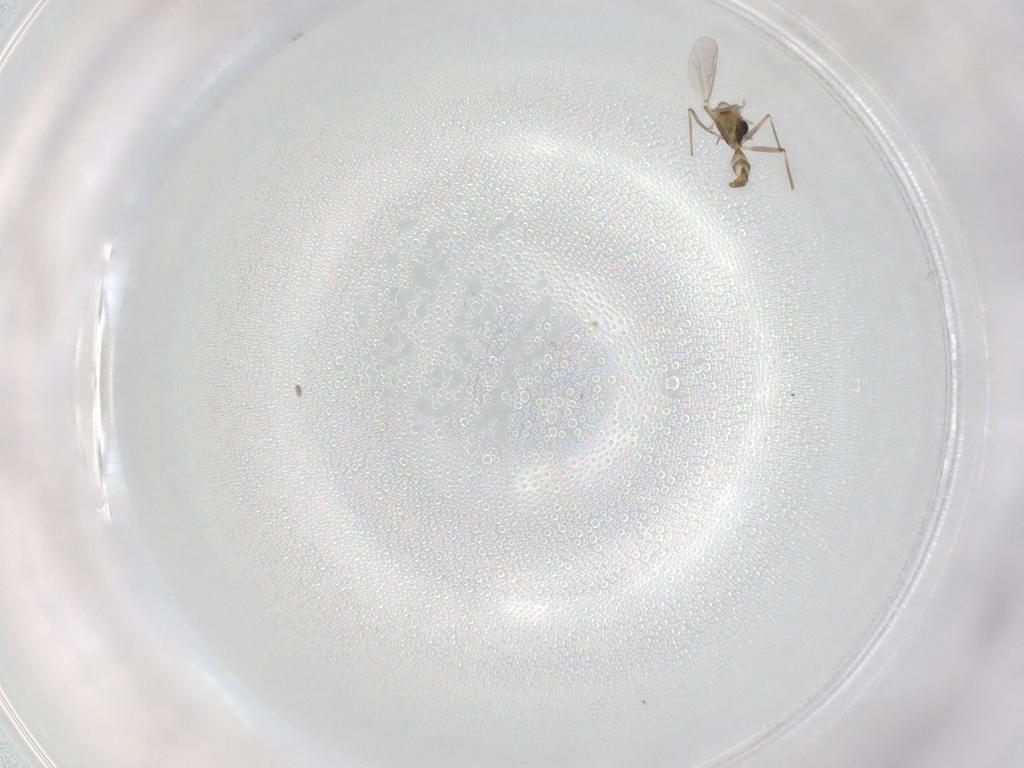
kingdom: Animalia
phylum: Arthropoda
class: Insecta
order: Diptera
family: Chironomidae
